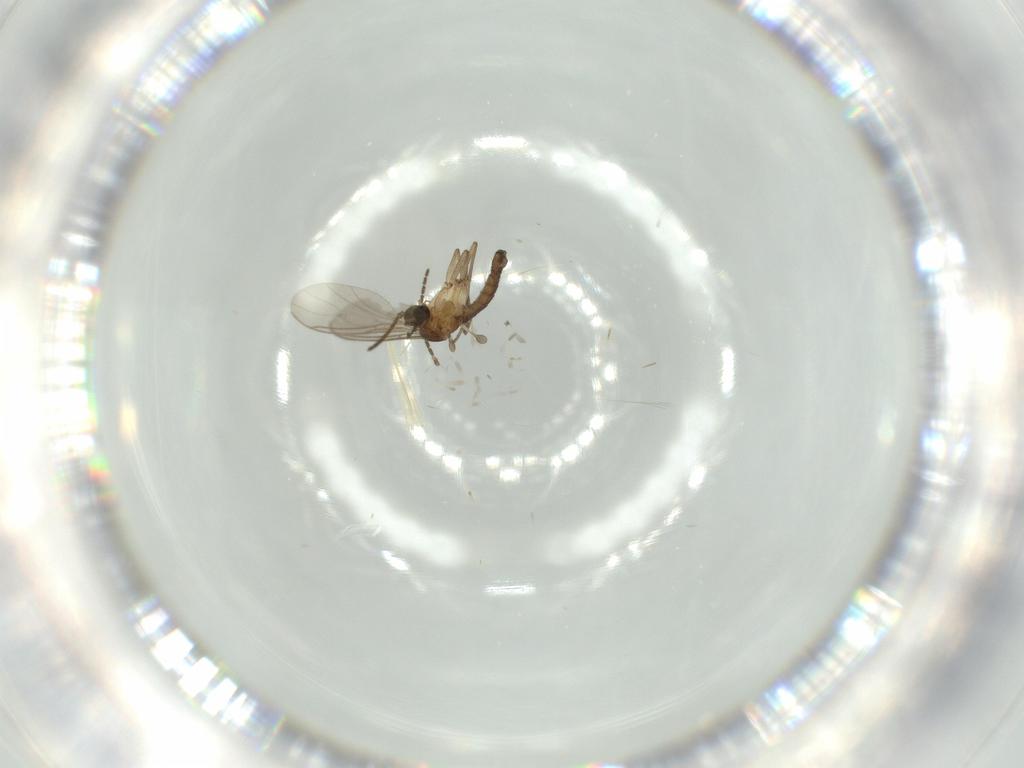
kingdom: Animalia
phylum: Arthropoda
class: Insecta
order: Diptera
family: Sciaridae
